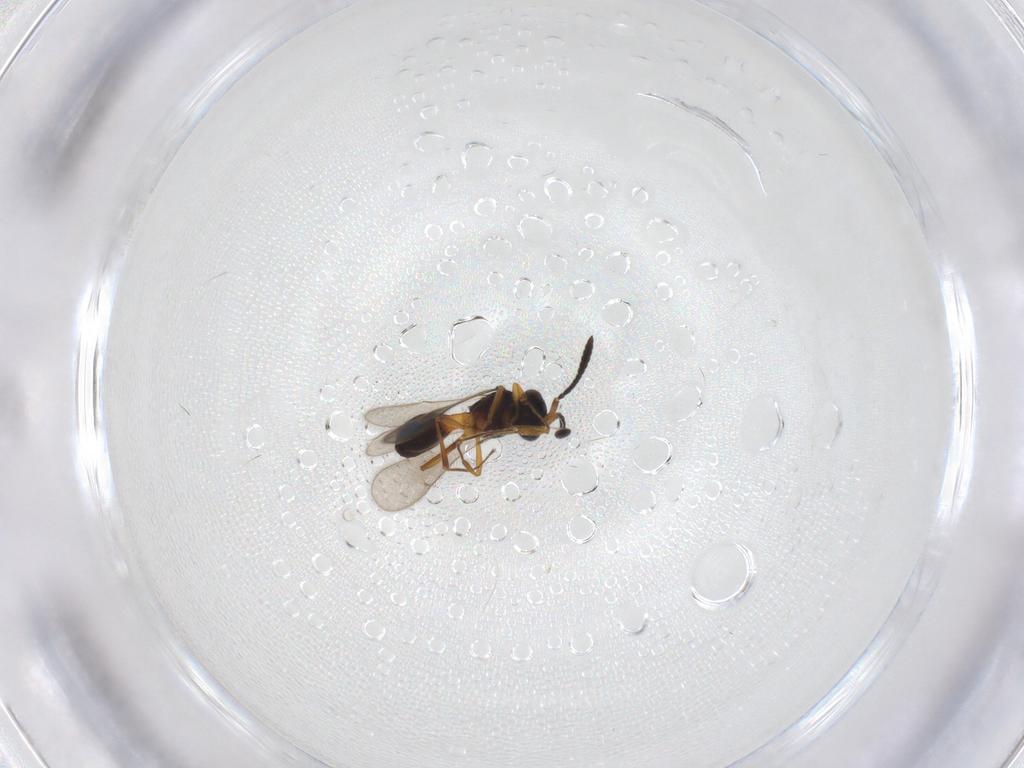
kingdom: Animalia
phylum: Arthropoda
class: Insecta
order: Hymenoptera
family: Scelionidae
